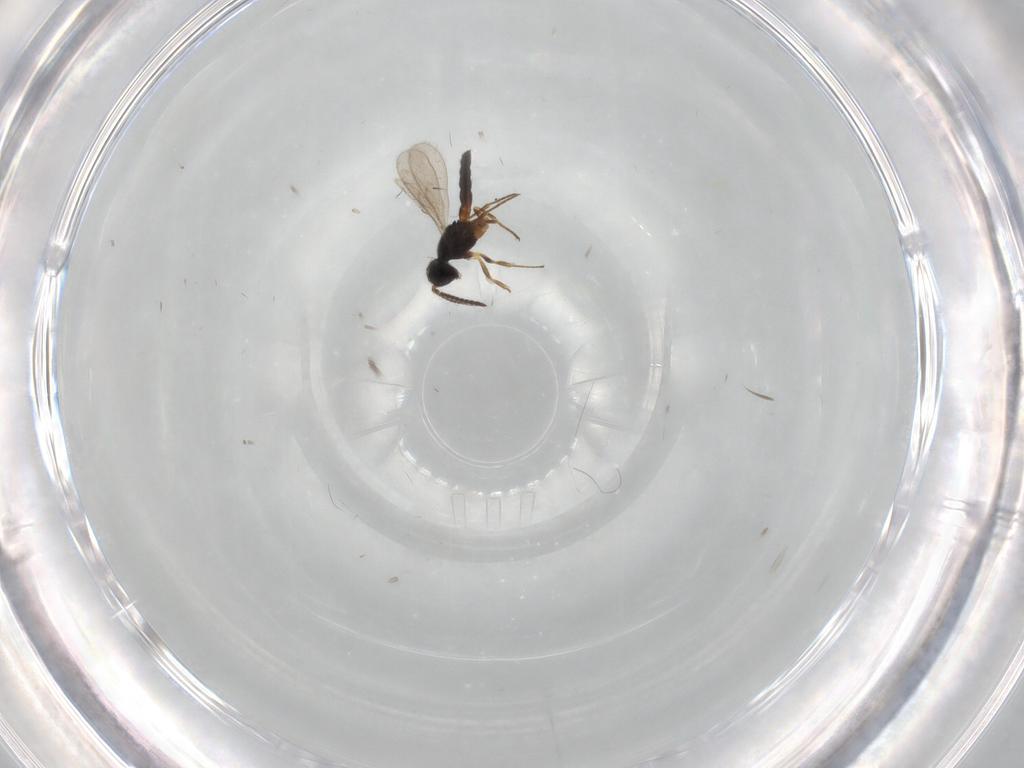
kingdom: Animalia
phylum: Arthropoda
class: Insecta
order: Hymenoptera
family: Scelionidae
